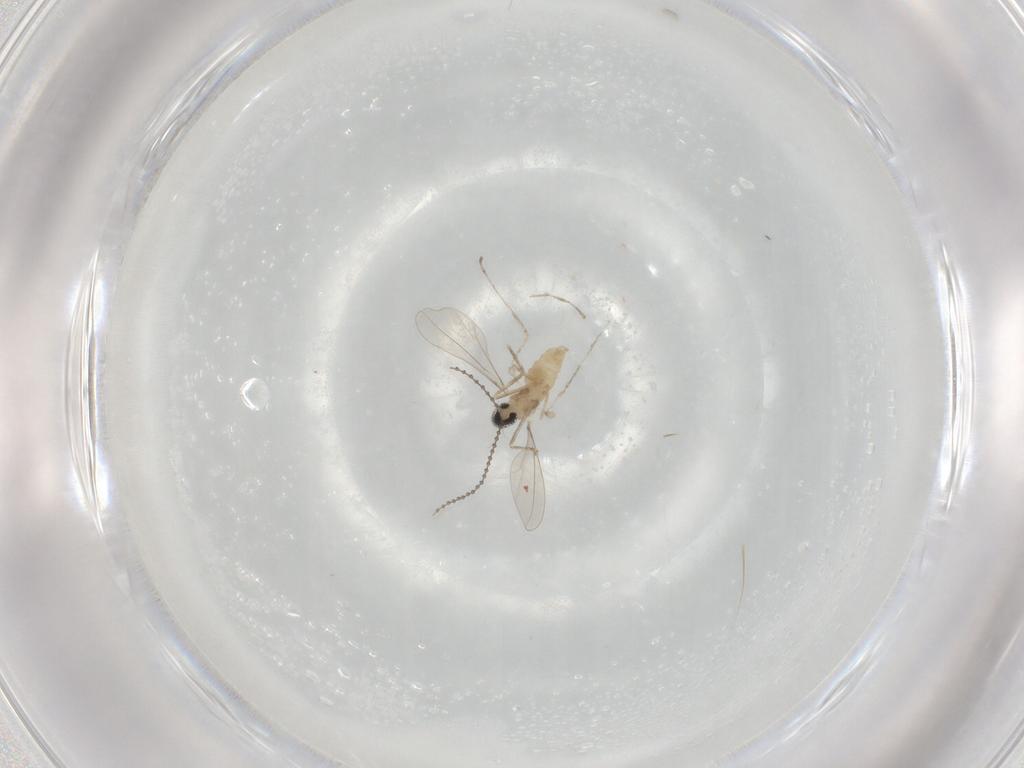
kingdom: Animalia
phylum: Arthropoda
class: Insecta
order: Diptera
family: Cecidomyiidae
